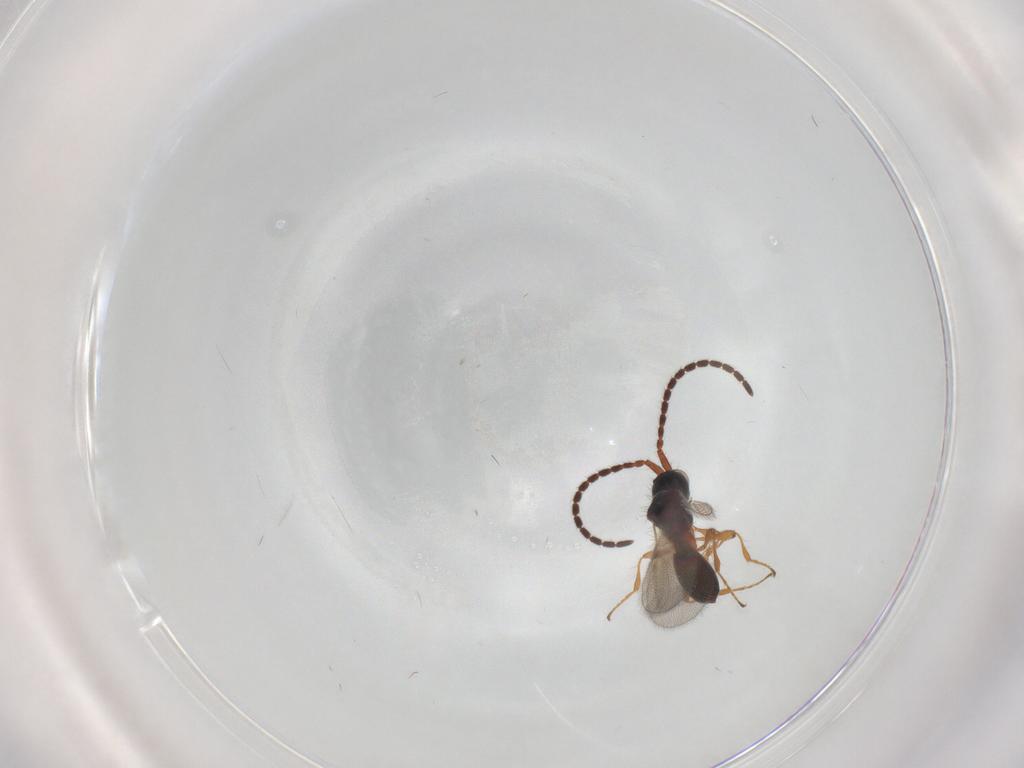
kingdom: Animalia
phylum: Arthropoda
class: Insecta
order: Hymenoptera
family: Diapriidae
